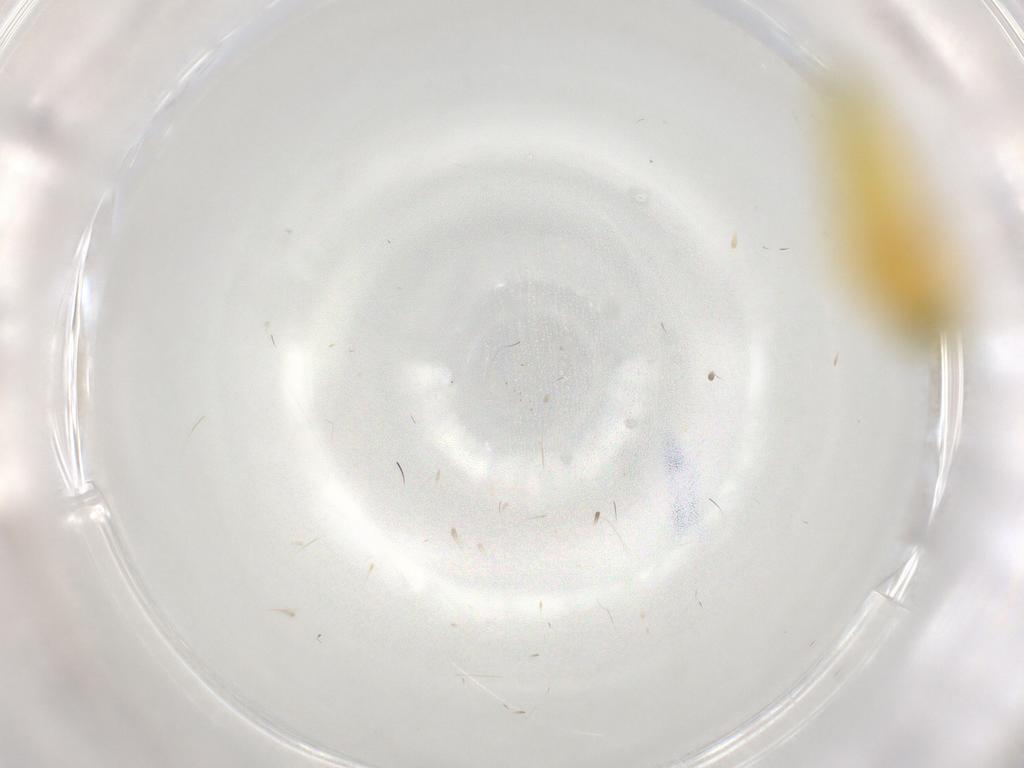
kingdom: Animalia
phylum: Arthropoda
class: Insecta
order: Hemiptera
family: Cicadellidae
